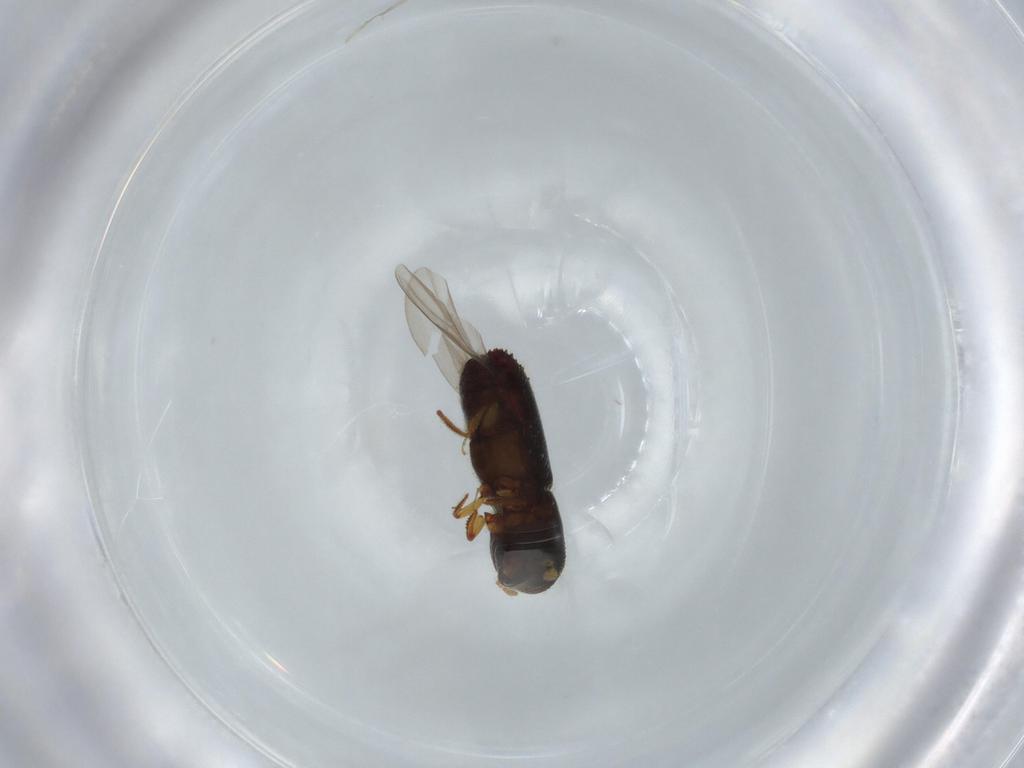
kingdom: Animalia
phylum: Arthropoda
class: Insecta
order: Coleoptera
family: Curculionidae
